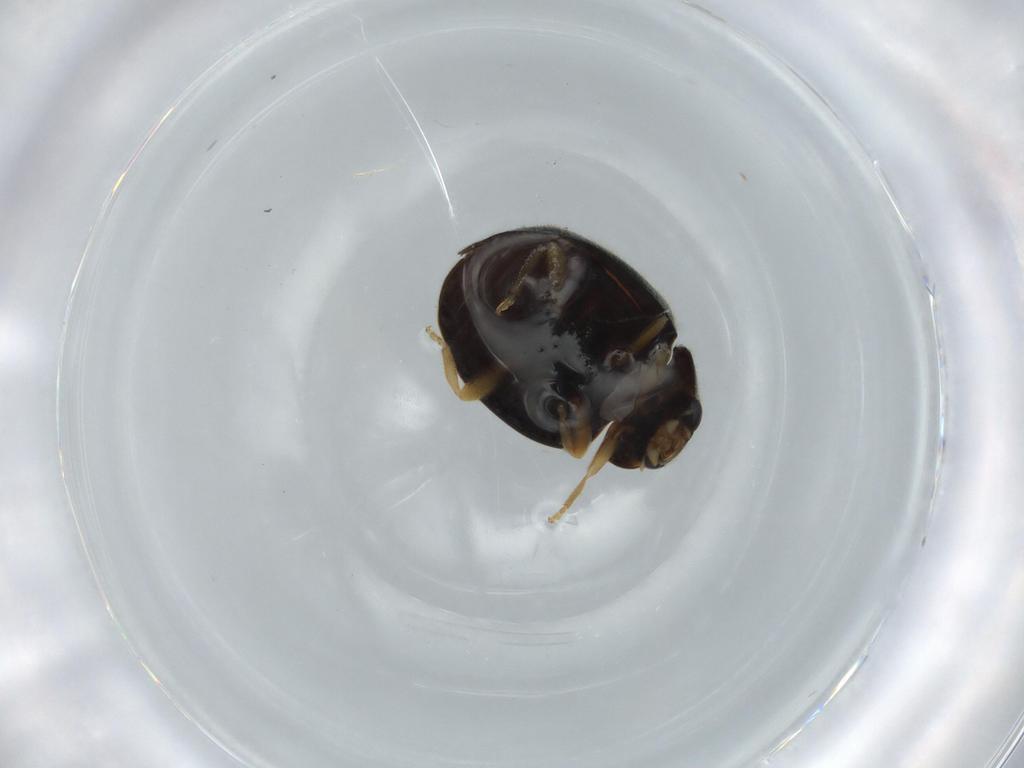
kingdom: Animalia
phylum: Arthropoda
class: Insecta
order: Coleoptera
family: Coccinellidae
